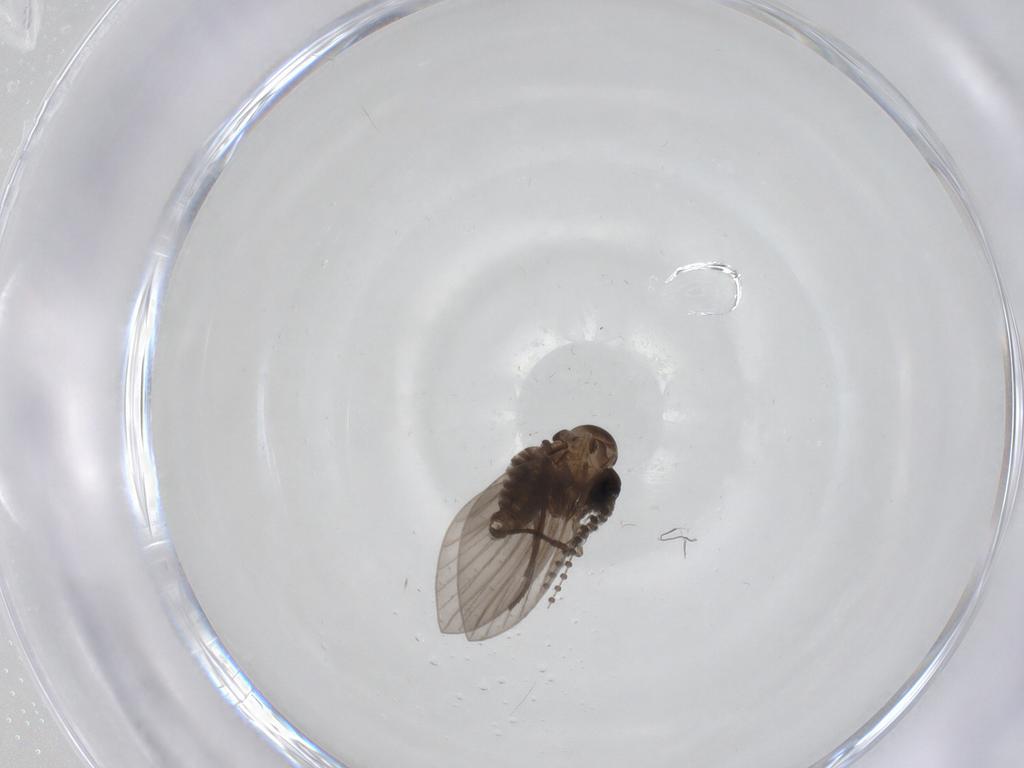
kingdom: Animalia
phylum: Arthropoda
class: Insecta
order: Diptera
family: Psychodidae
